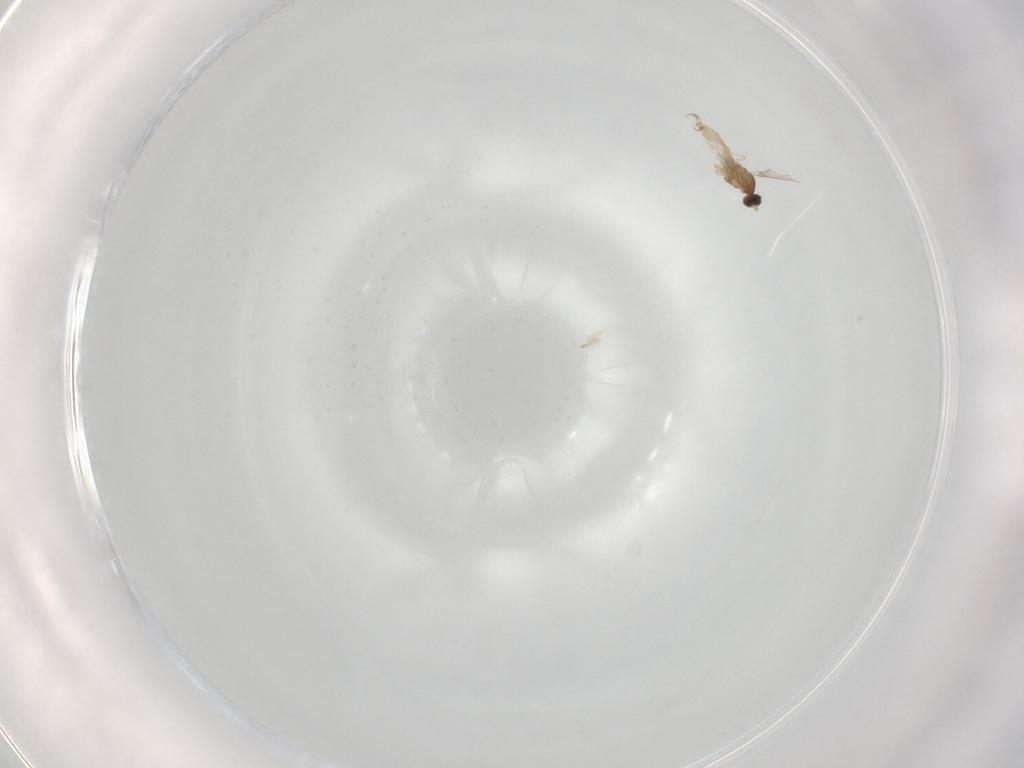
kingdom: Animalia
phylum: Arthropoda
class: Insecta
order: Diptera
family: Cecidomyiidae
